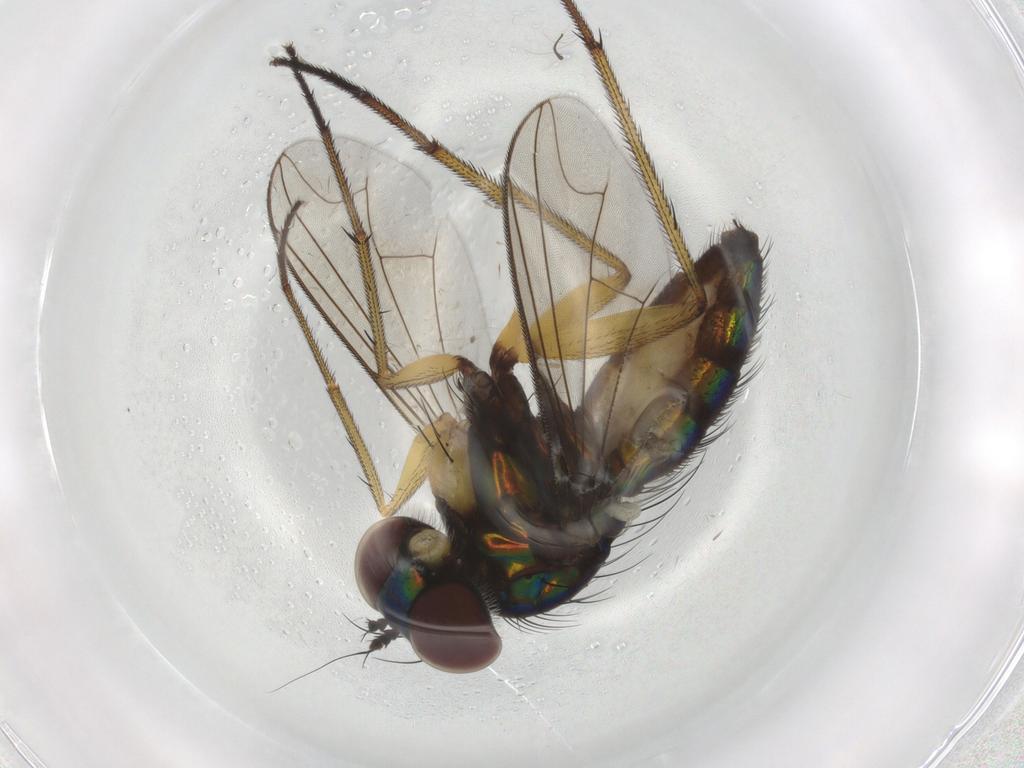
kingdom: Animalia
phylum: Arthropoda
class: Insecta
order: Diptera
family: Dolichopodidae
